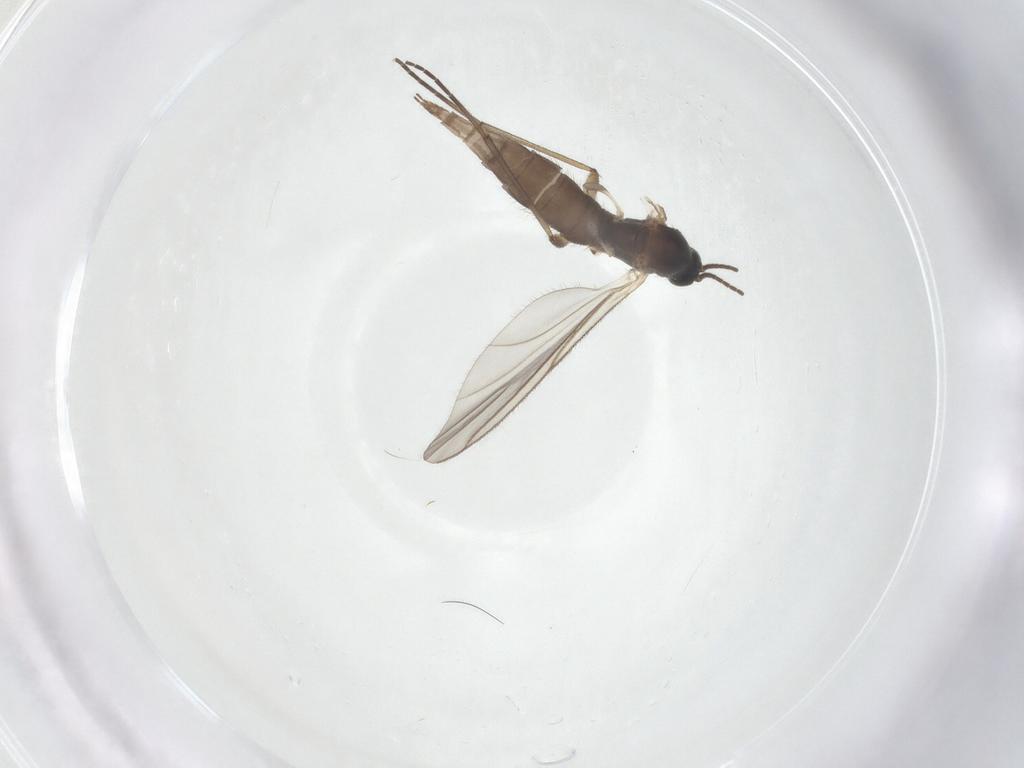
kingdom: Animalia
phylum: Arthropoda
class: Insecta
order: Diptera
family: Sciaridae
